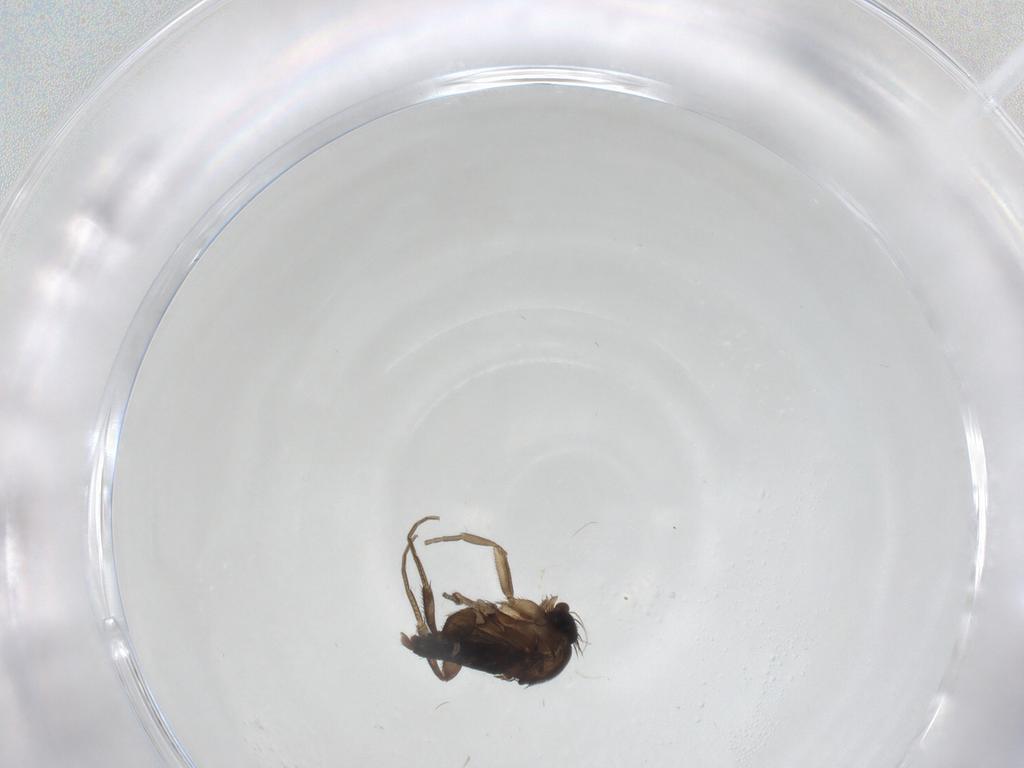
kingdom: Animalia
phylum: Arthropoda
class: Insecta
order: Diptera
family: Phoridae
